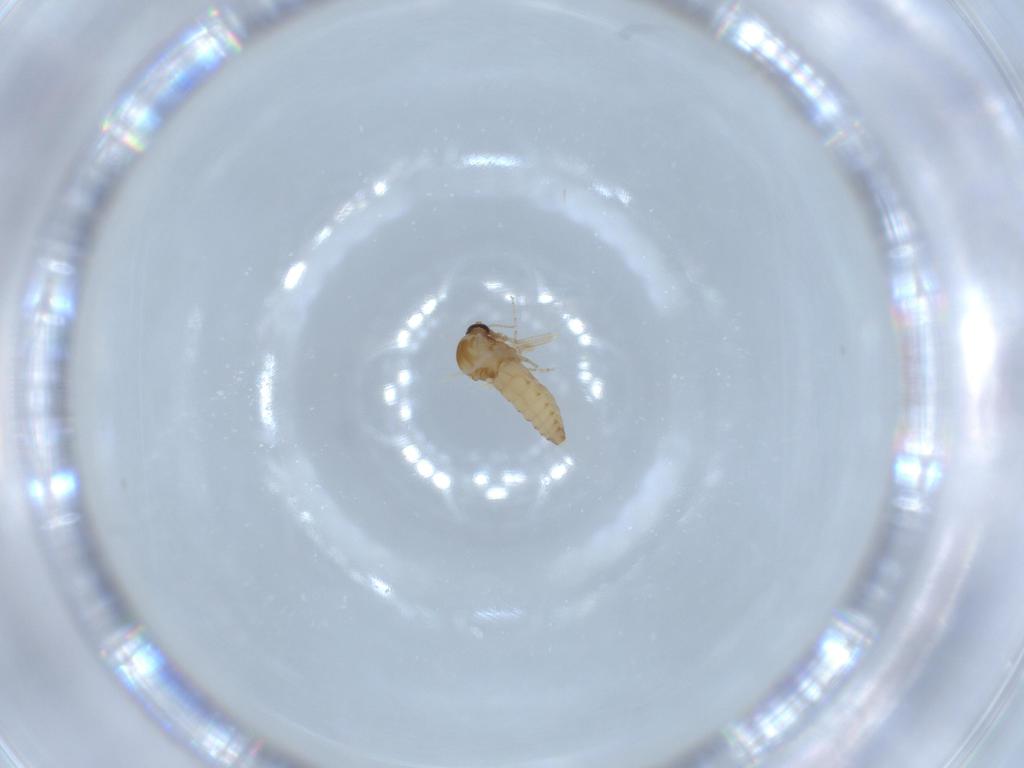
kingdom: Animalia
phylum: Arthropoda
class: Insecta
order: Diptera
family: Ceratopogonidae
